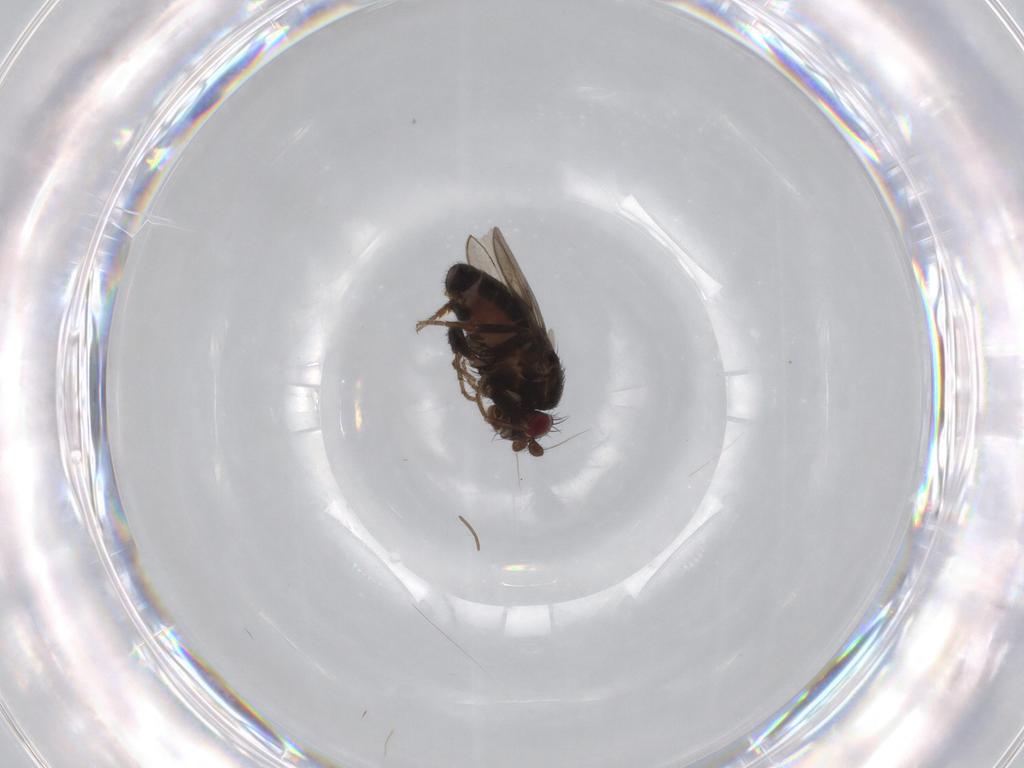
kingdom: Animalia
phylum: Arthropoda
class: Insecta
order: Diptera
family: Sphaeroceridae
